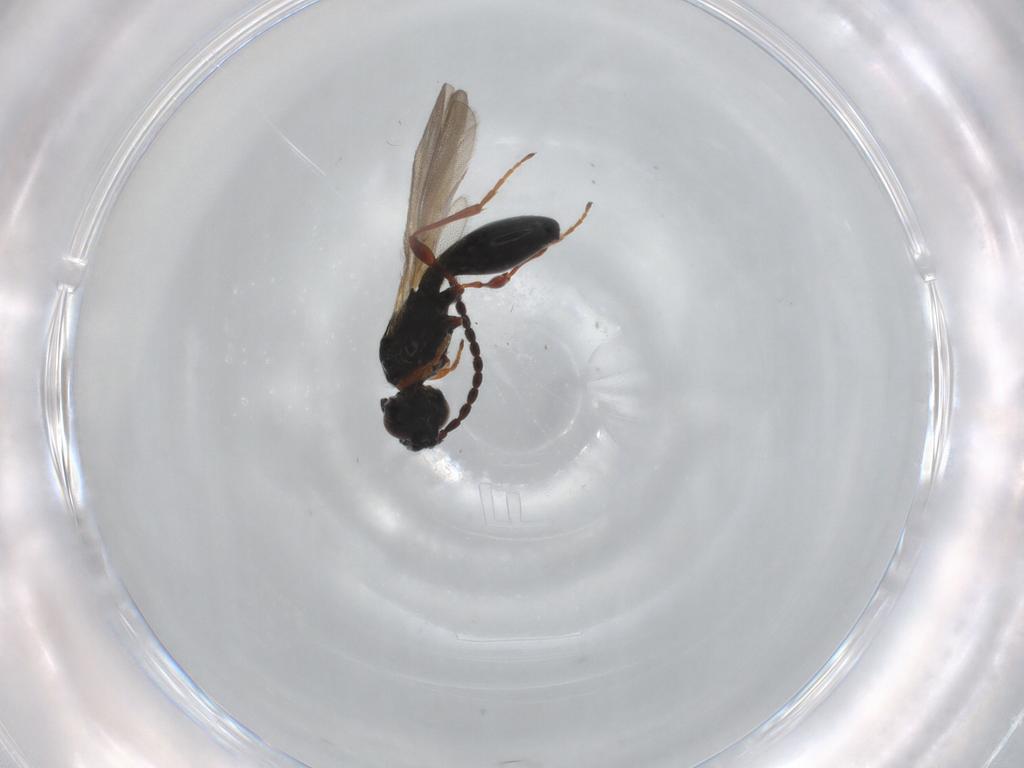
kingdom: Animalia
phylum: Arthropoda
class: Insecta
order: Hymenoptera
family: Diapriidae
